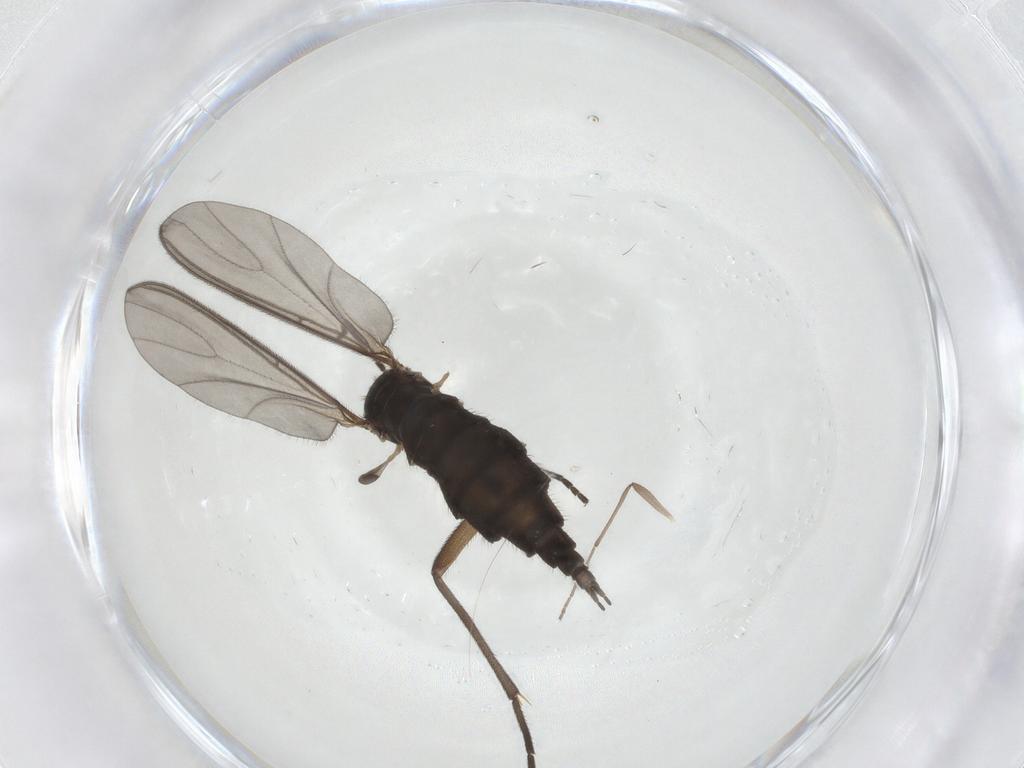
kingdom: Animalia
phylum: Arthropoda
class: Insecta
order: Diptera
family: Sciaridae
